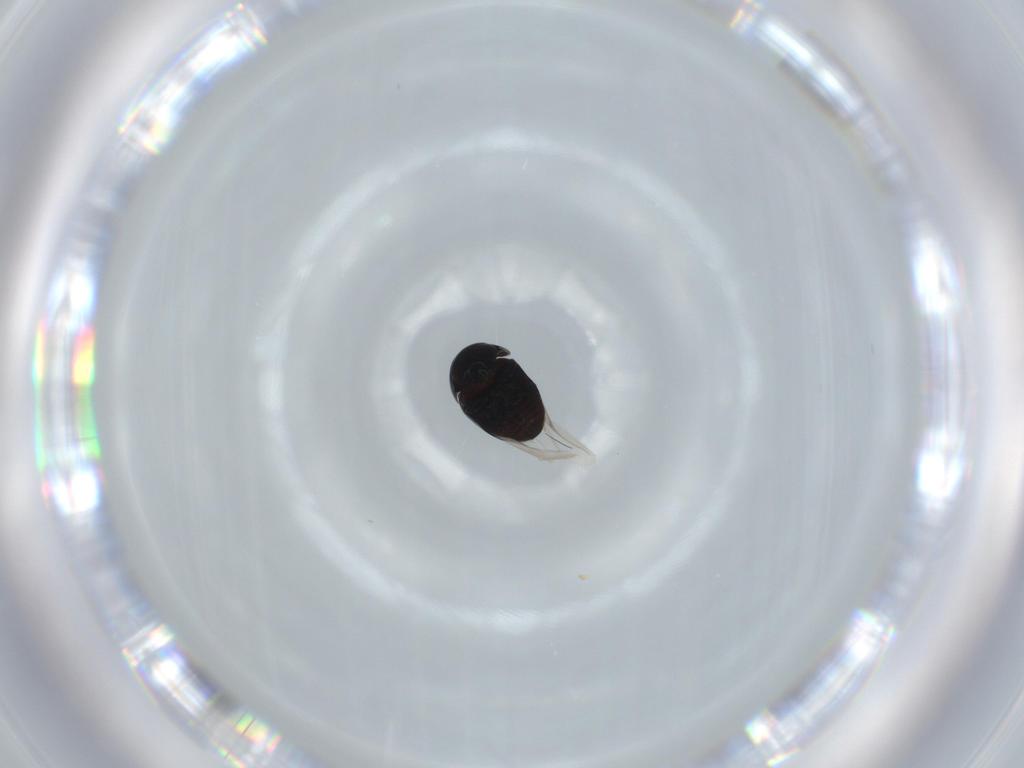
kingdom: Animalia
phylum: Arthropoda
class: Insecta
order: Coleoptera
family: Cybocephalidae
